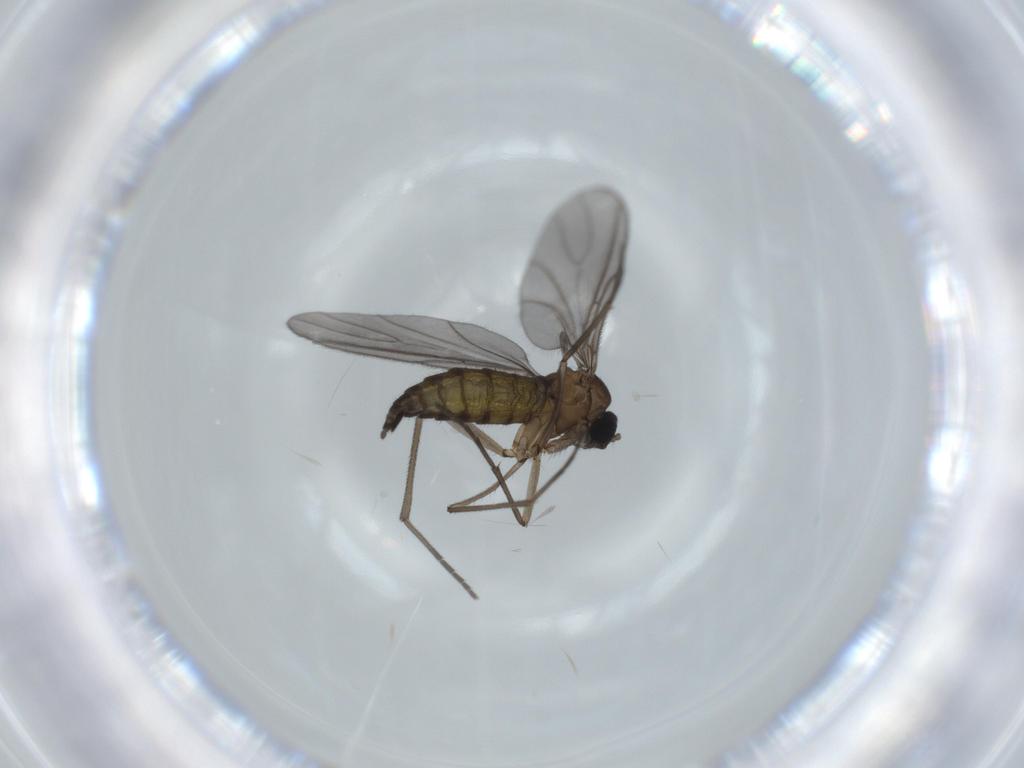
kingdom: Animalia
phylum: Arthropoda
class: Insecta
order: Diptera
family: Sciaridae
